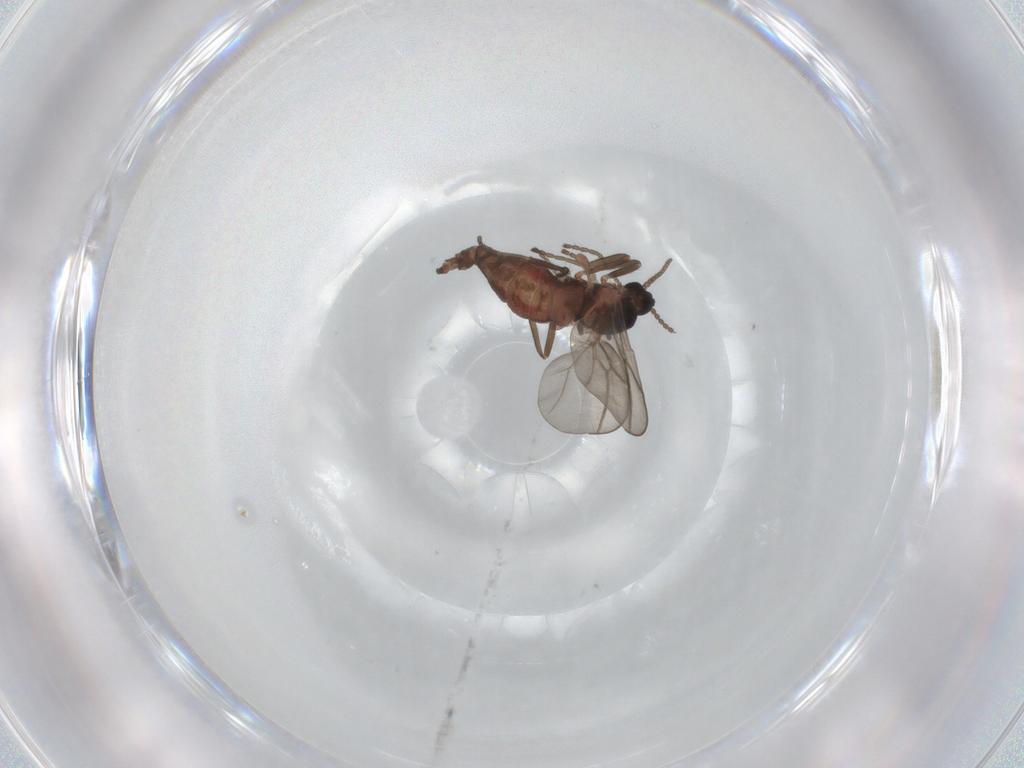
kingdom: Animalia
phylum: Arthropoda
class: Insecta
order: Diptera
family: Cecidomyiidae
